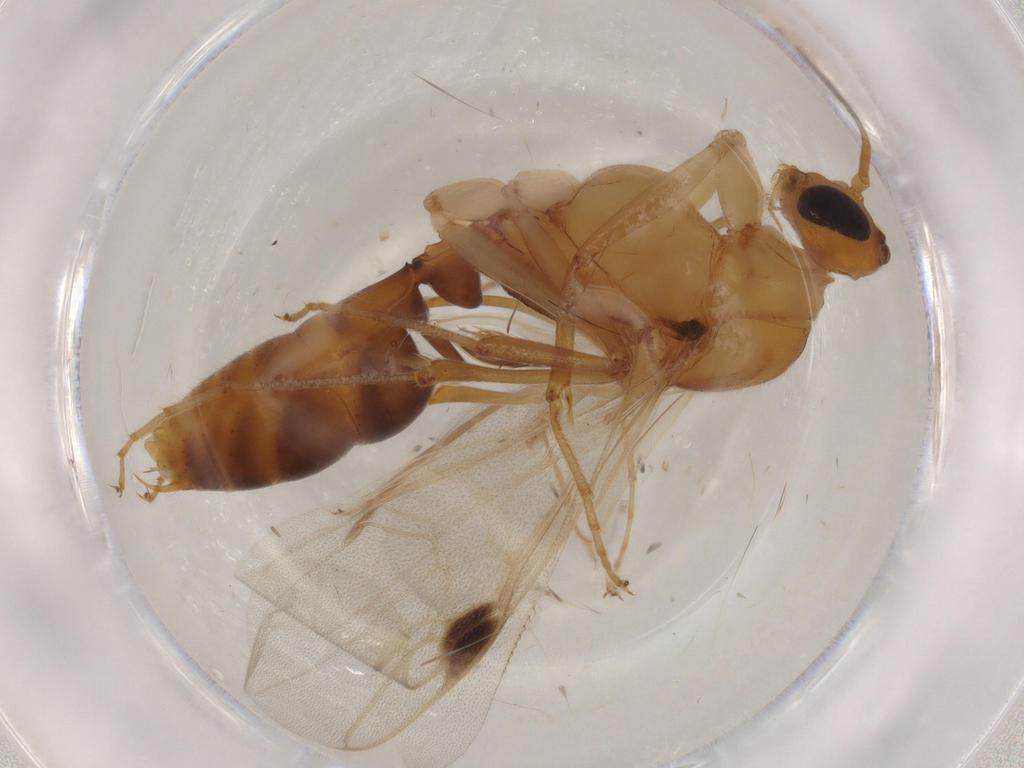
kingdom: Animalia
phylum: Arthropoda
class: Insecta
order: Hymenoptera
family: Formicidae
